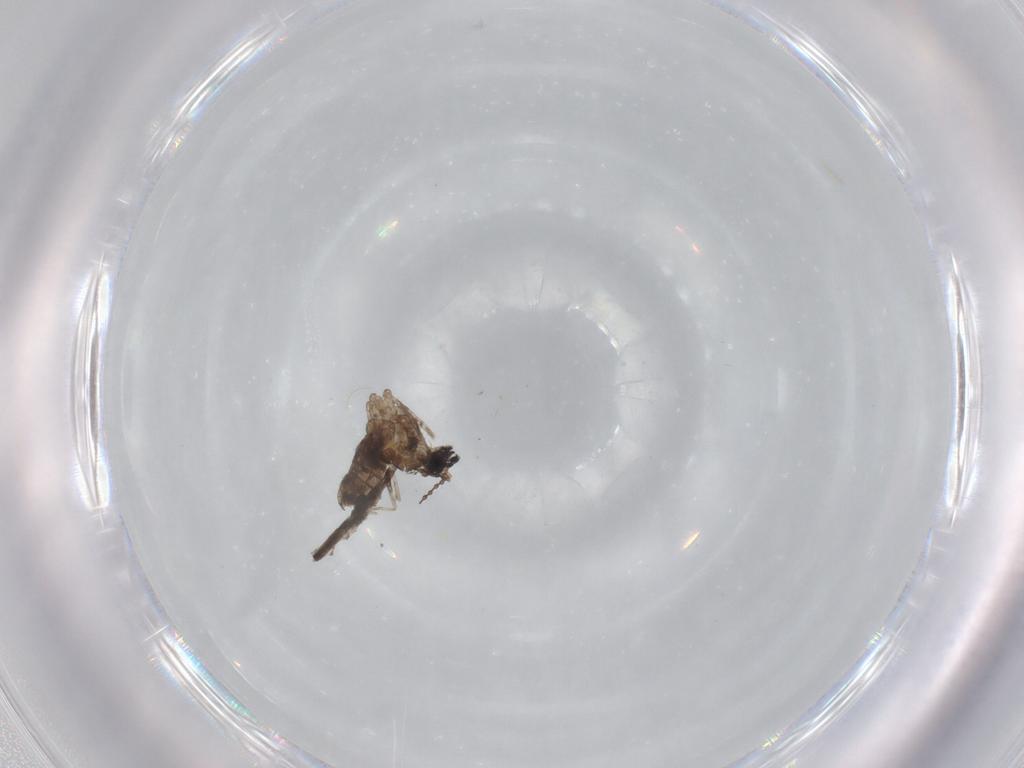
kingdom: Animalia
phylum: Arthropoda
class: Insecta
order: Diptera
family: Cecidomyiidae
